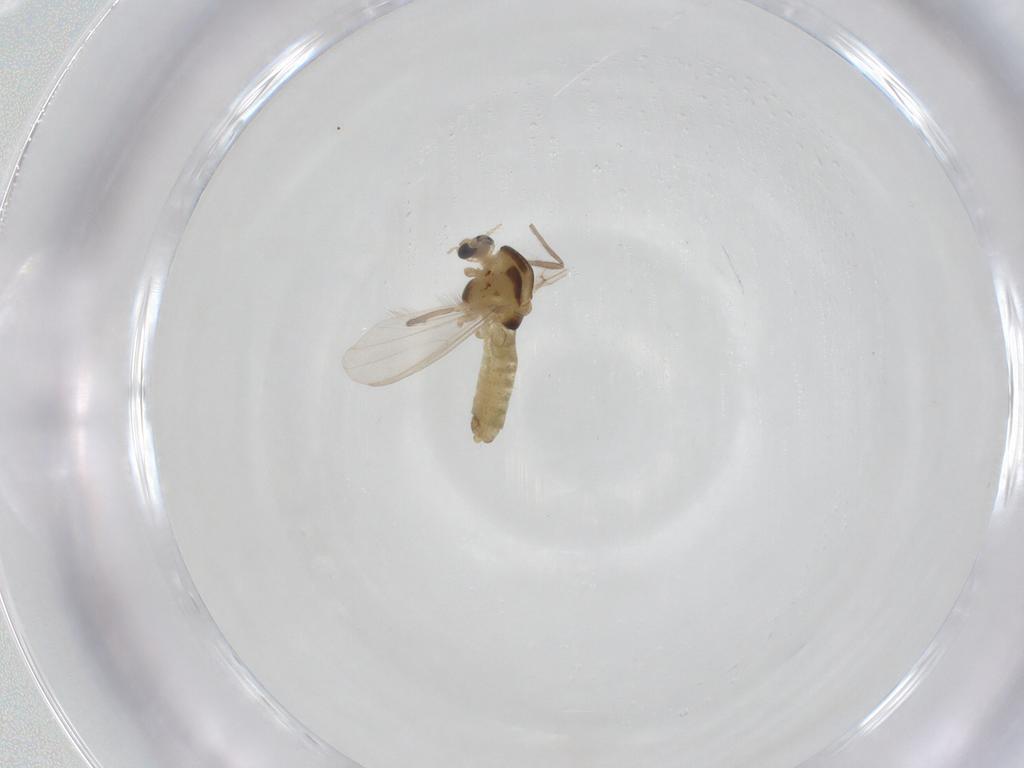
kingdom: Animalia
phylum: Arthropoda
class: Insecta
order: Diptera
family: Chironomidae
